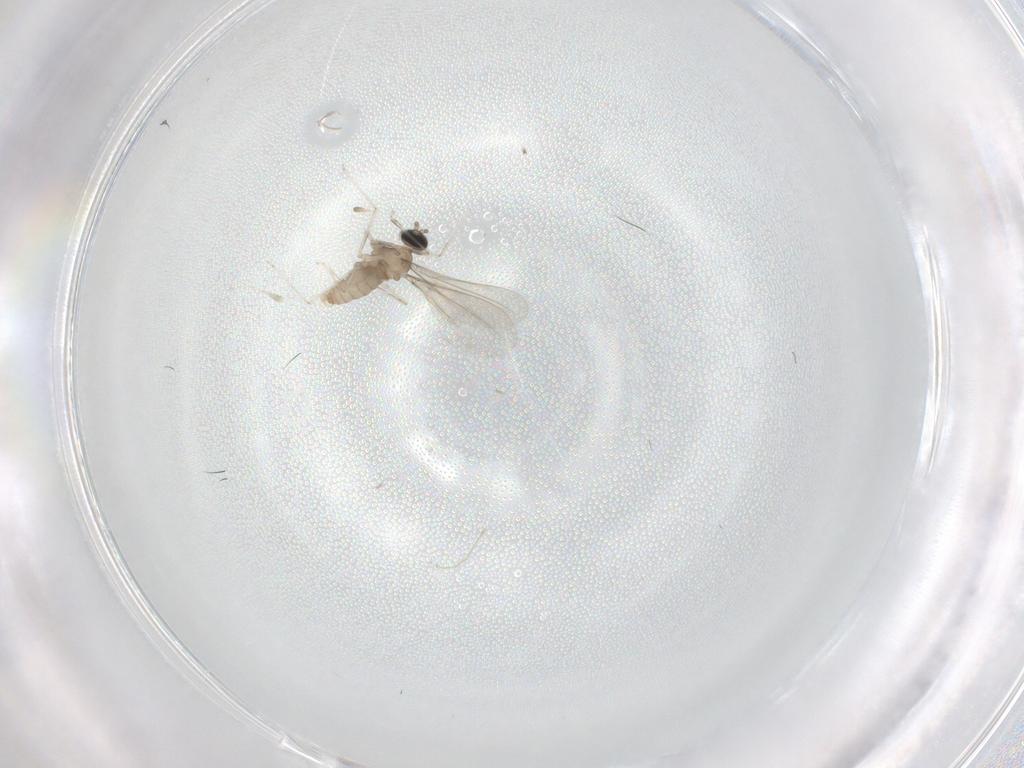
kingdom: Animalia
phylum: Arthropoda
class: Insecta
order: Diptera
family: Cecidomyiidae
